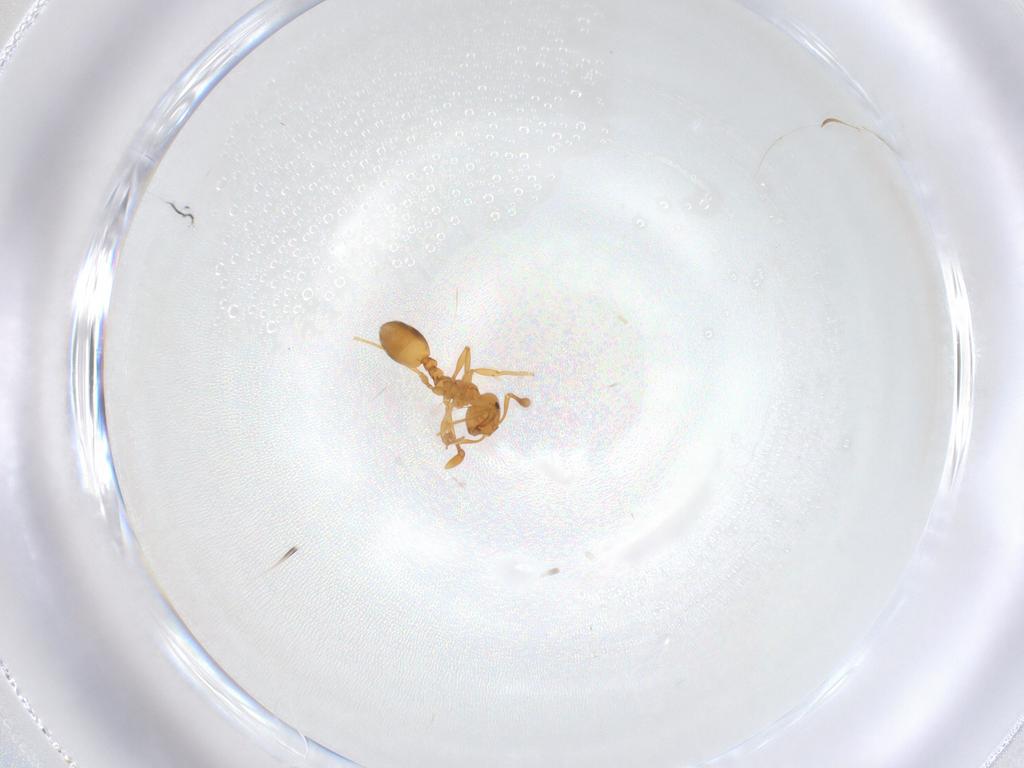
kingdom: Animalia
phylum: Arthropoda
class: Insecta
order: Hymenoptera
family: Formicidae
